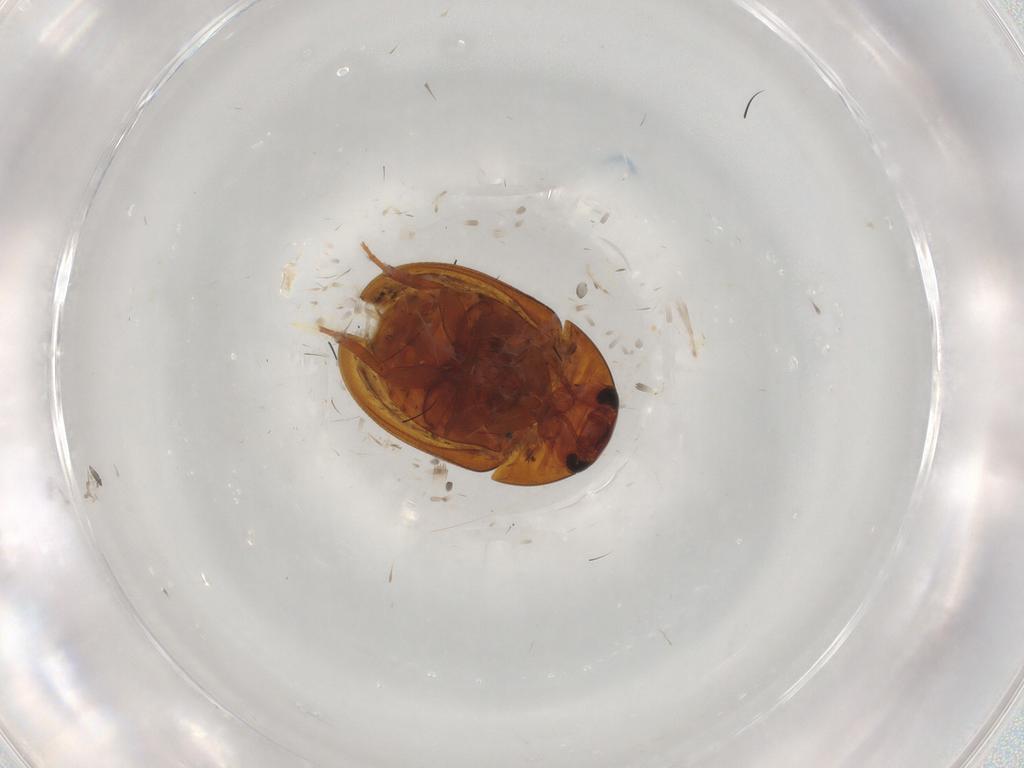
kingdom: Animalia
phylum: Arthropoda
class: Insecta
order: Coleoptera
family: Phalacridae
